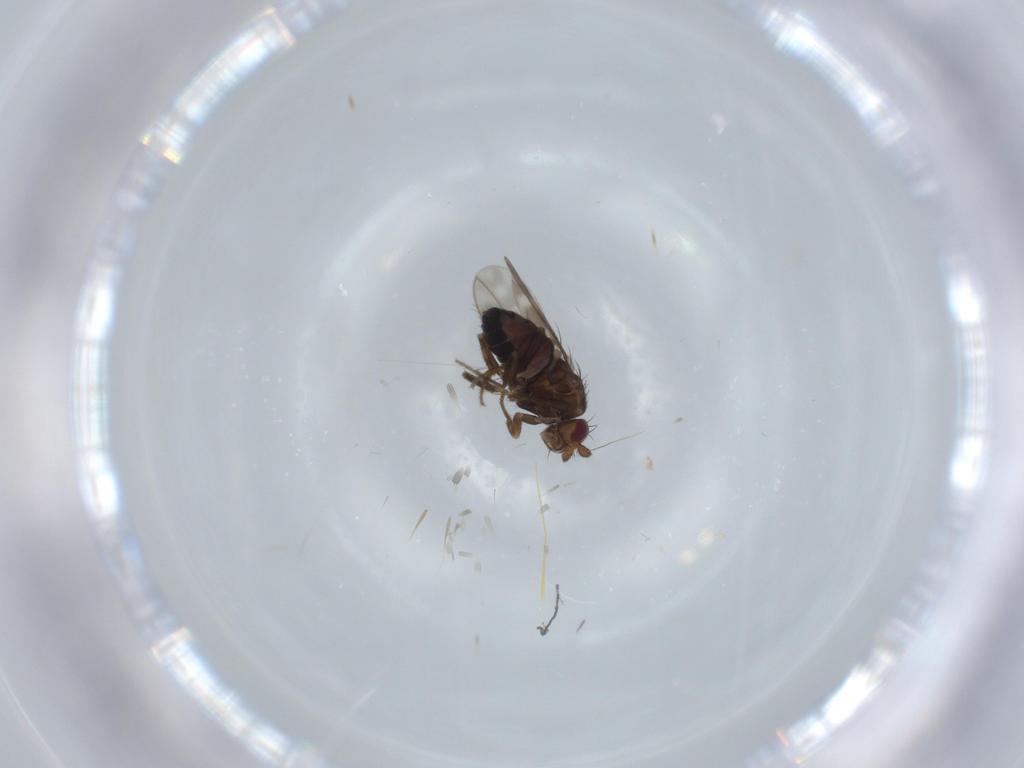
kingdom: Animalia
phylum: Arthropoda
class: Insecta
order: Diptera
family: Sphaeroceridae
